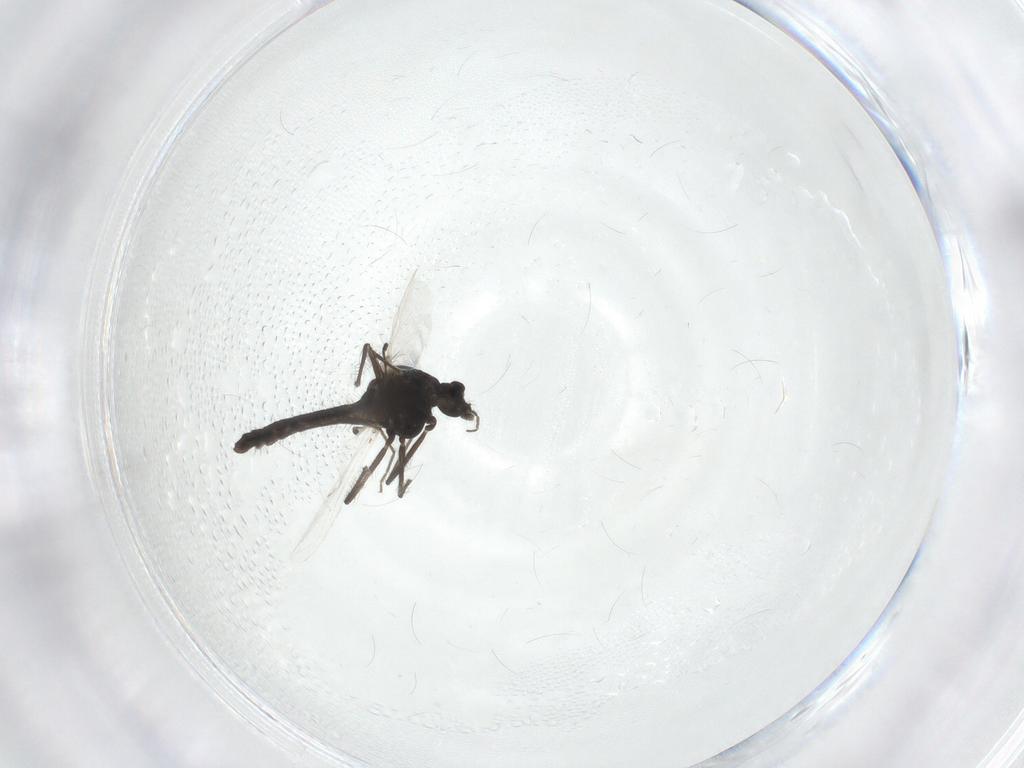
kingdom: Animalia
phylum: Arthropoda
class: Insecta
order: Diptera
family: Chironomidae
